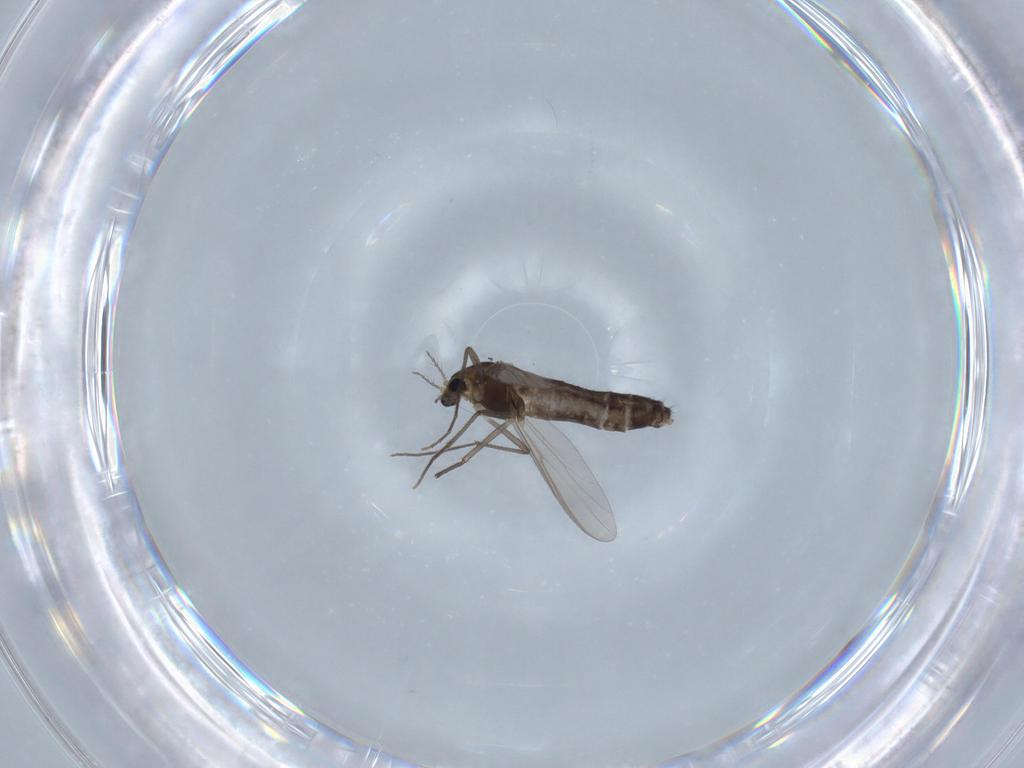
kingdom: Animalia
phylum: Arthropoda
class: Insecta
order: Diptera
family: Chironomidae
